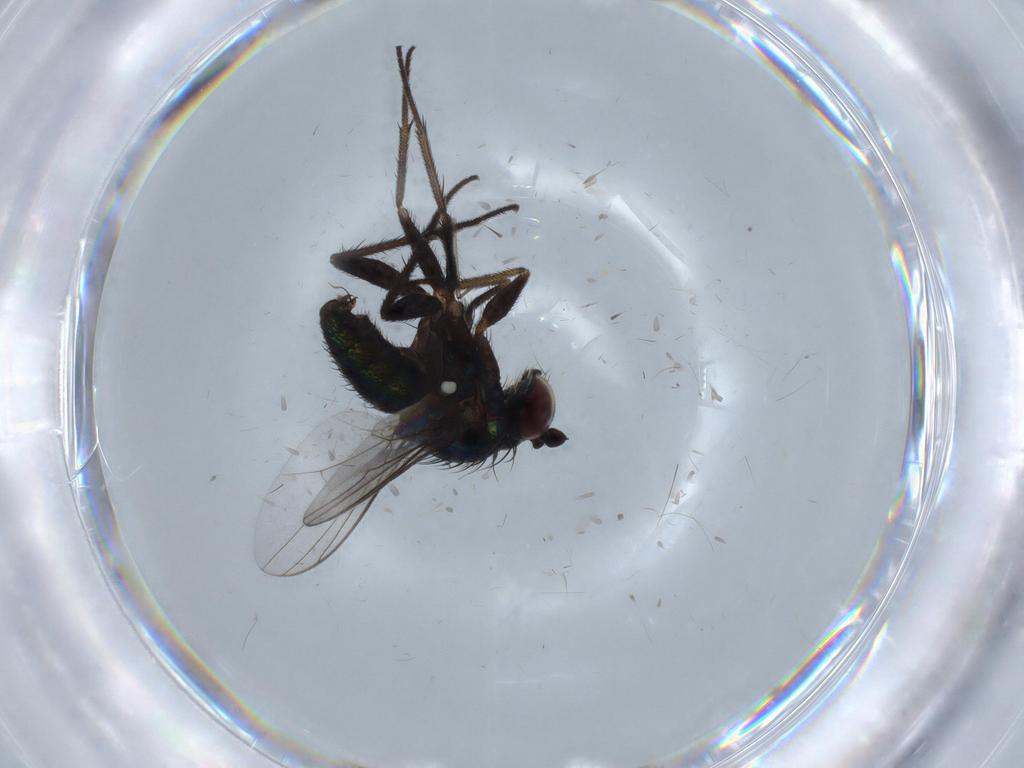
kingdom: Animalia
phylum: Arthropoda
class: Insecta
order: Diptera
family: Dolichopodidae
